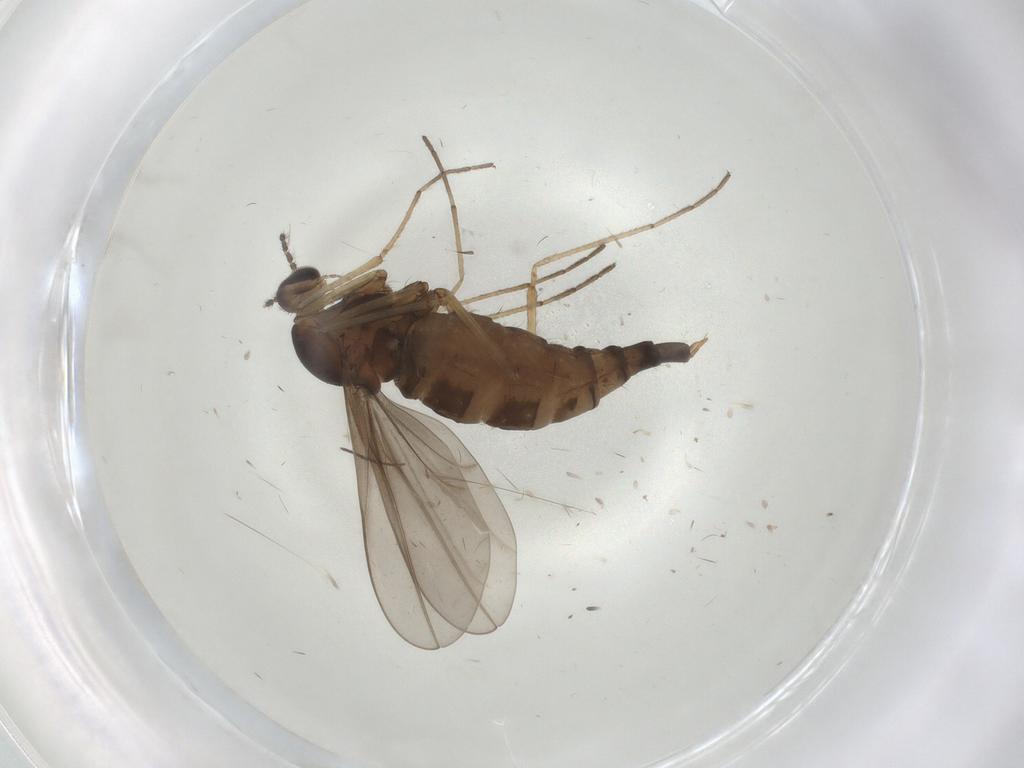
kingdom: Animalia
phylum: Arthropoda
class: Insecta
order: Diptera
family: Cecidomyiidae
